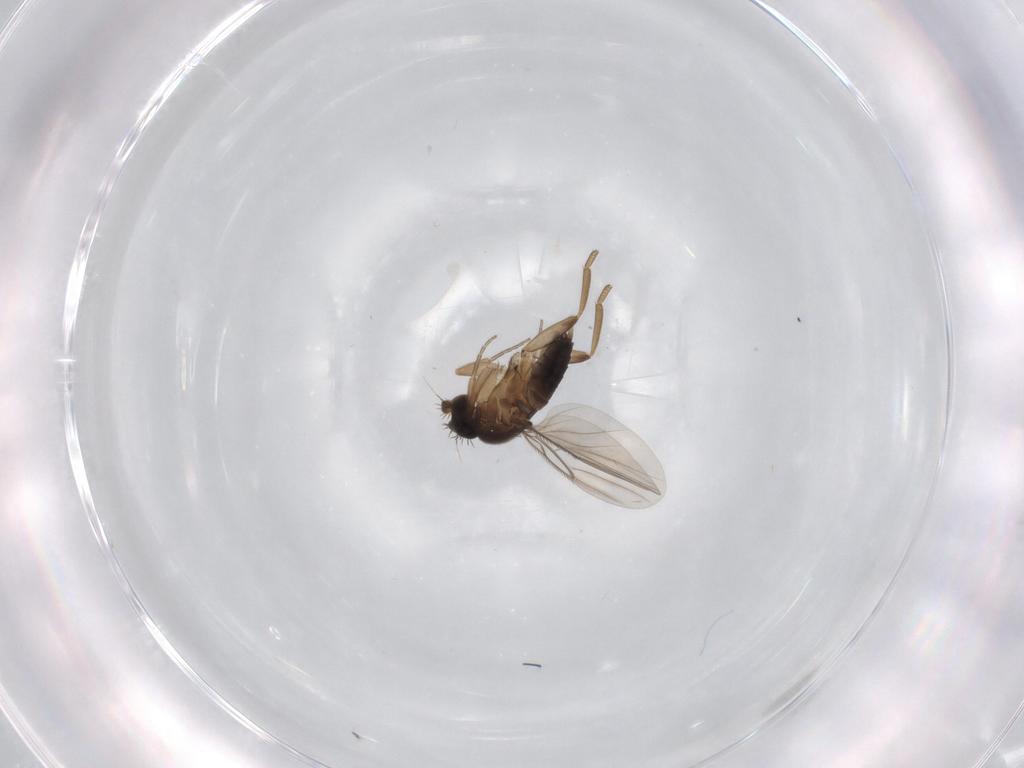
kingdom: Animalia
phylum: Arthropoda
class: Insecta
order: Diptera
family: Phoridae
